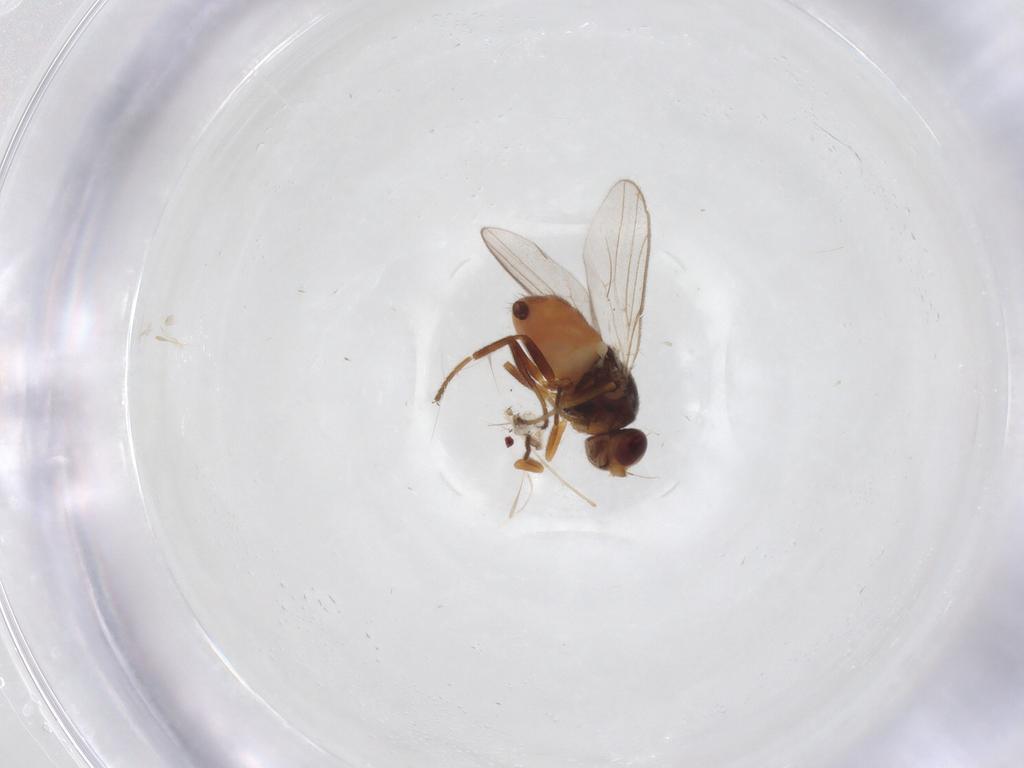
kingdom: Animalia
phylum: Arthropoda
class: Insecta
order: Diptera
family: Chloropidae
